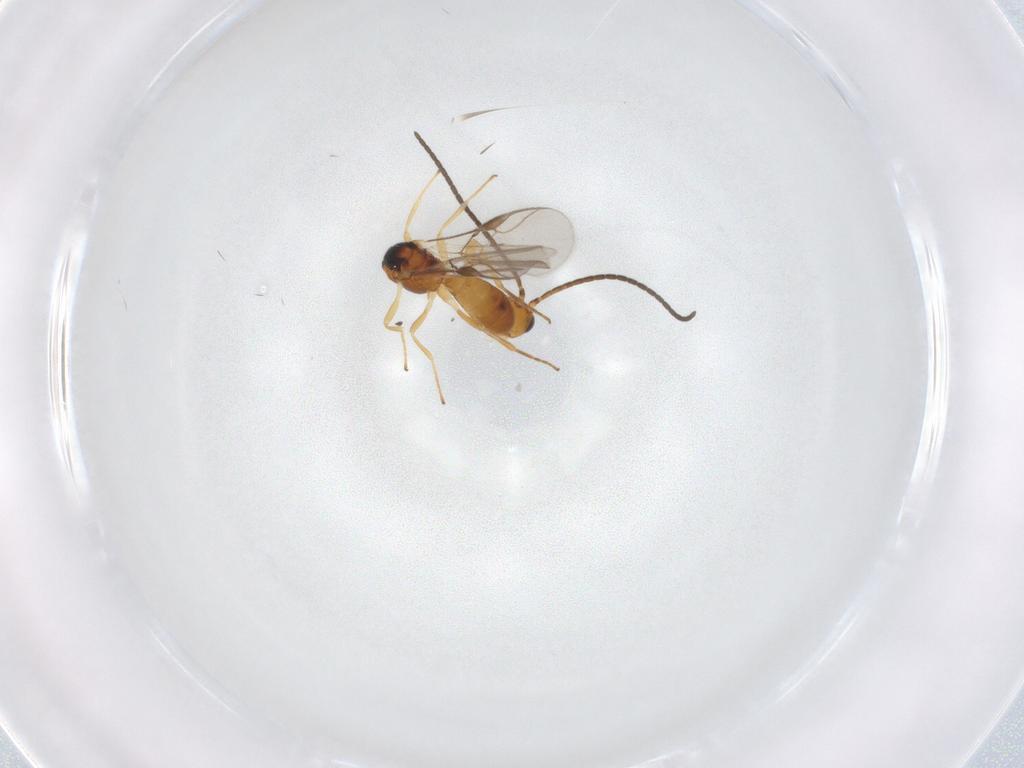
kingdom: Animalia
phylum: Arthropoda
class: Insecta
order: Hymenoptera
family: Braconidae
